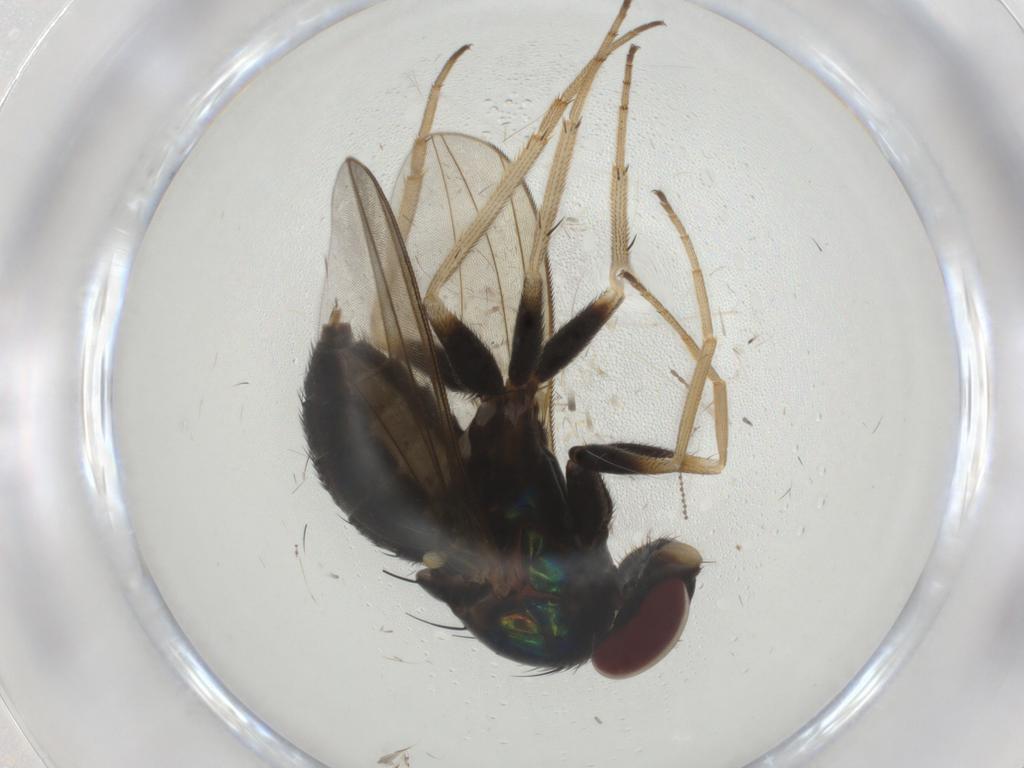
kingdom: Animalia
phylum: Arthropoda
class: Insecta
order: Diptera
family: Dolichopodidae
